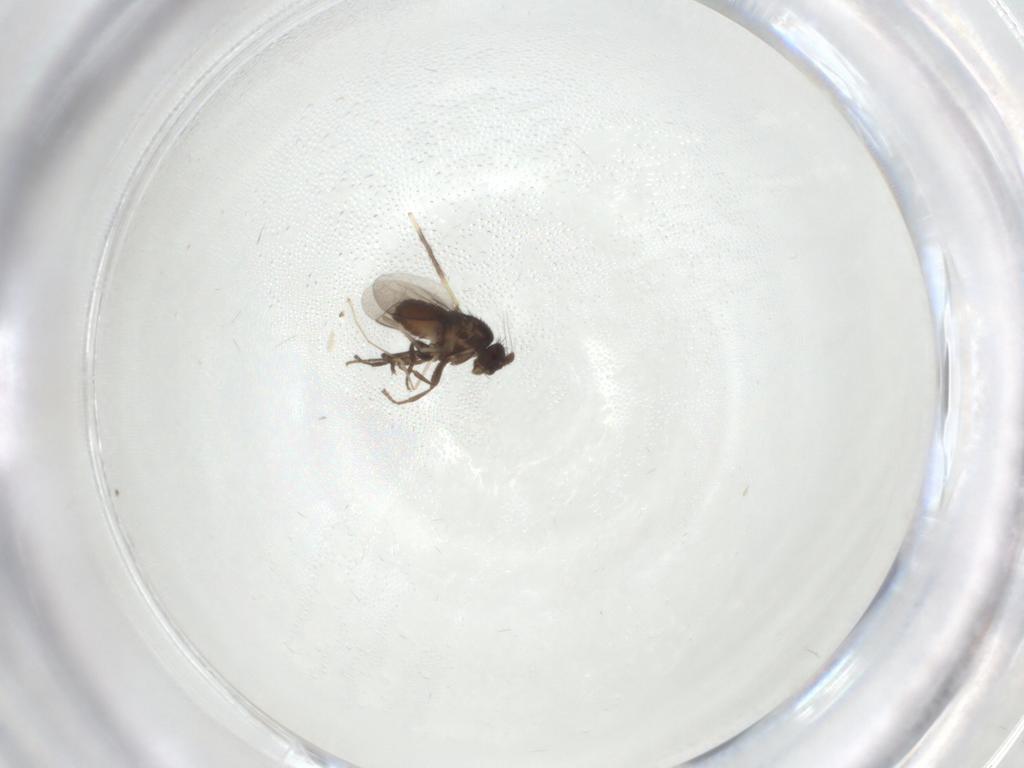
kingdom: Animalia
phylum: Arthropoda
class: Insecta
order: Diptera
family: Sphaeroceridae
